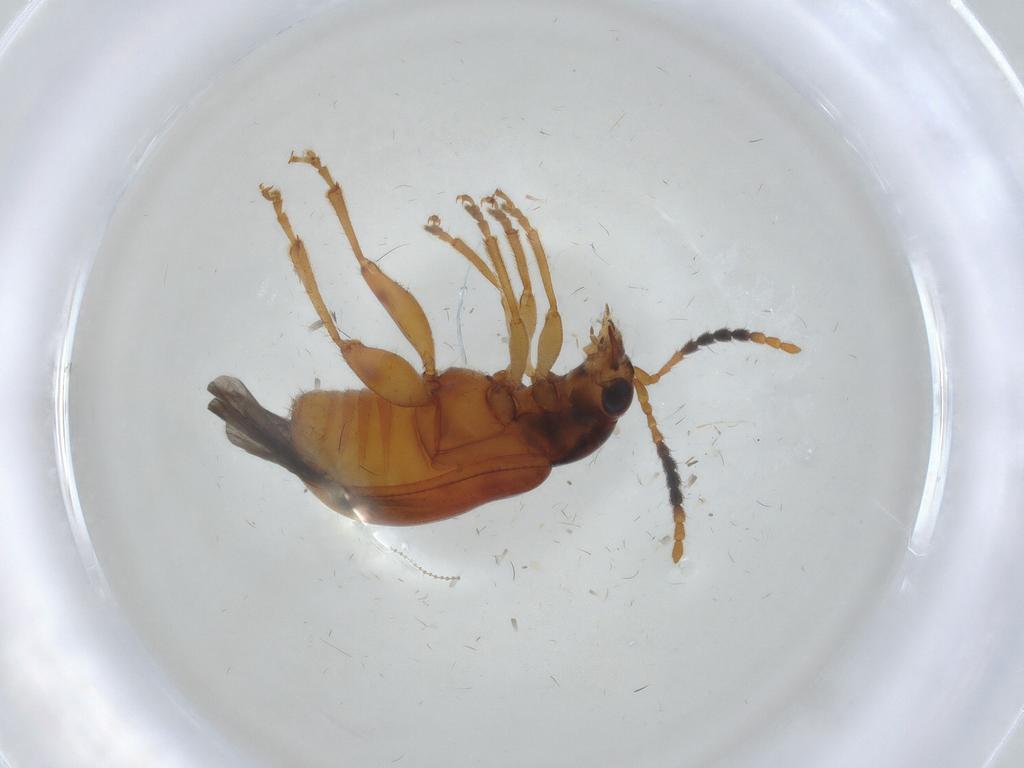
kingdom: Animalia
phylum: Arthropoda
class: Insecta
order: Coleoptera
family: Chrysomelidae
